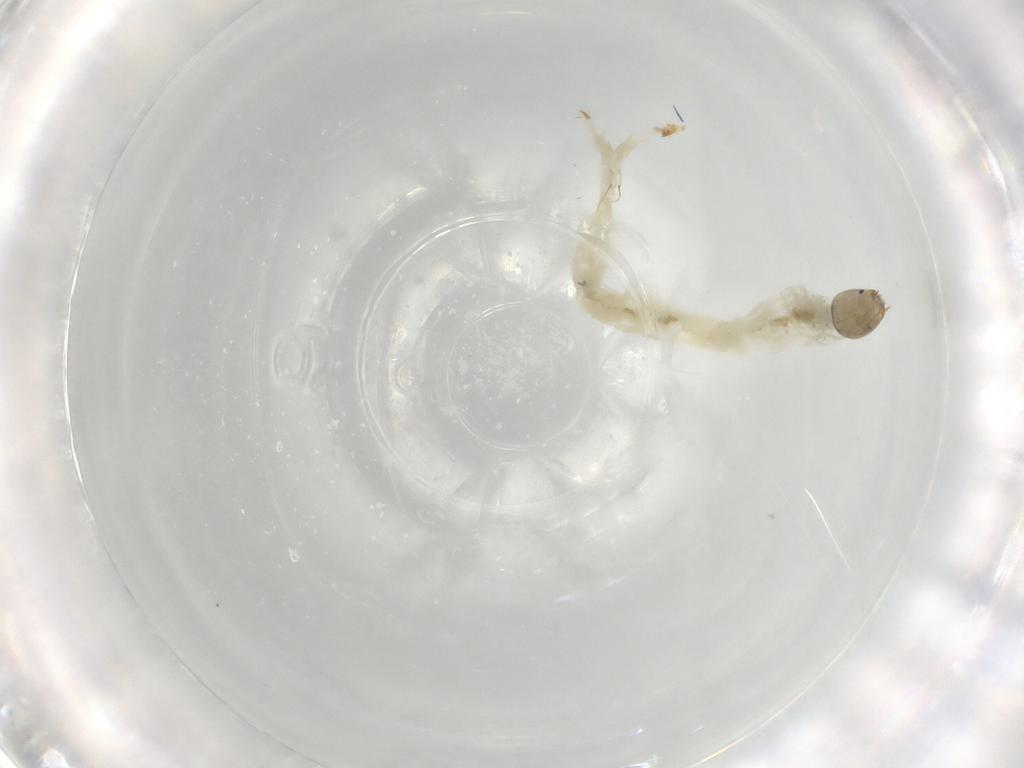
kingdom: Animalia
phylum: Arthropoda
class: Insecta
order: Diptera
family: Chironomidae
